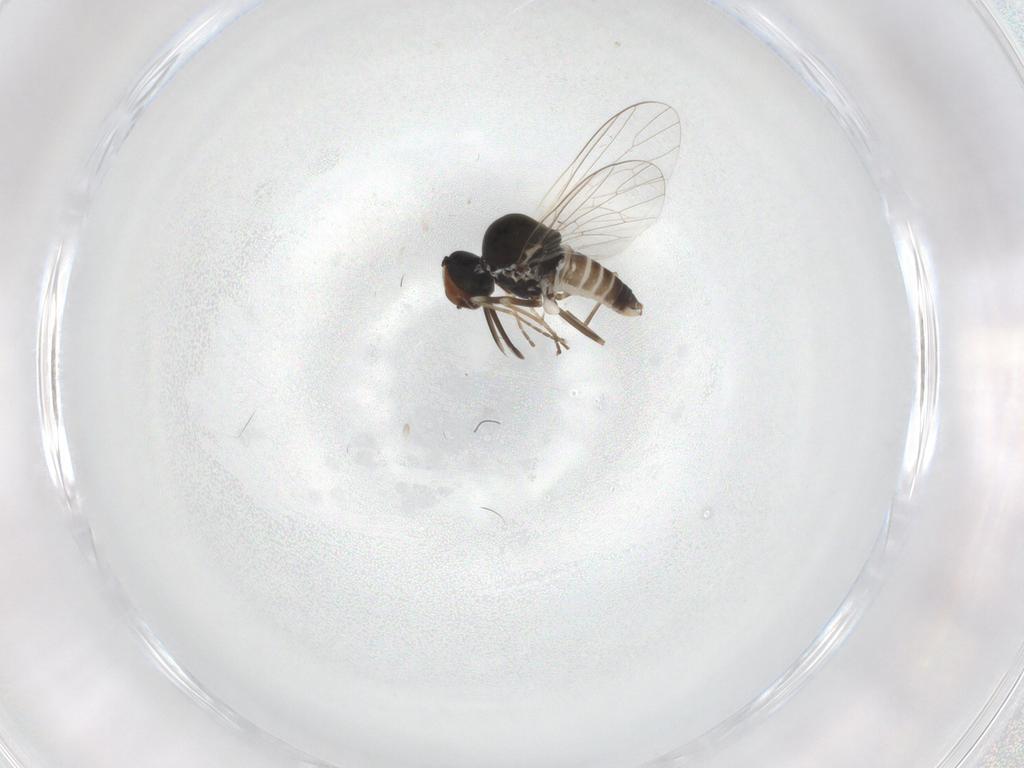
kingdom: Animalia
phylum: Arthropoda
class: Insecta
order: Diptera
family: Bombyliidae
